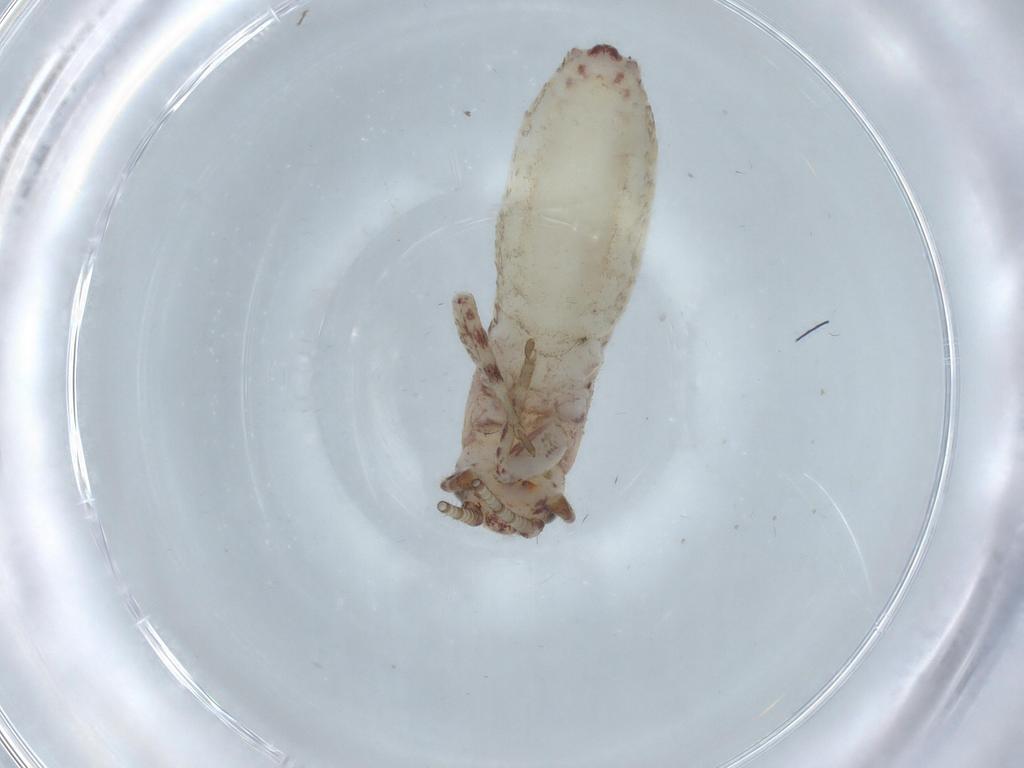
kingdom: Animalia
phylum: Arthropoda
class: Insecta
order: Orthoptera
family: Mogoplistidae
